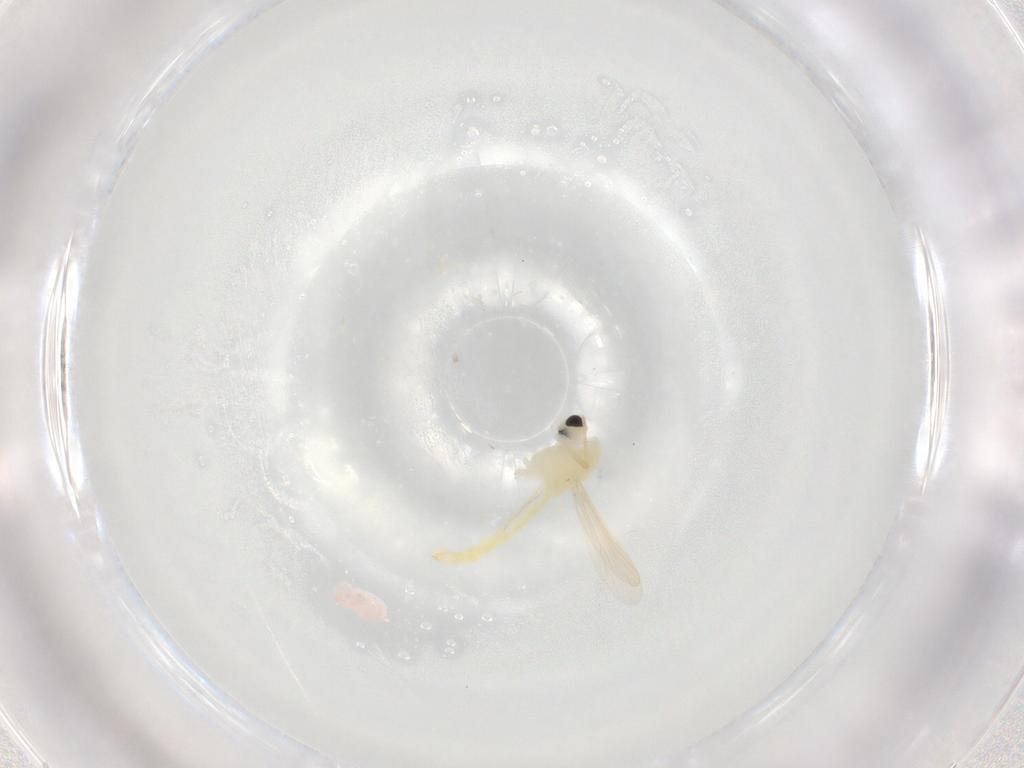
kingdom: Animalia
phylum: Arthropoda
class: Insecta
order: Diptera
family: Chironomidae
